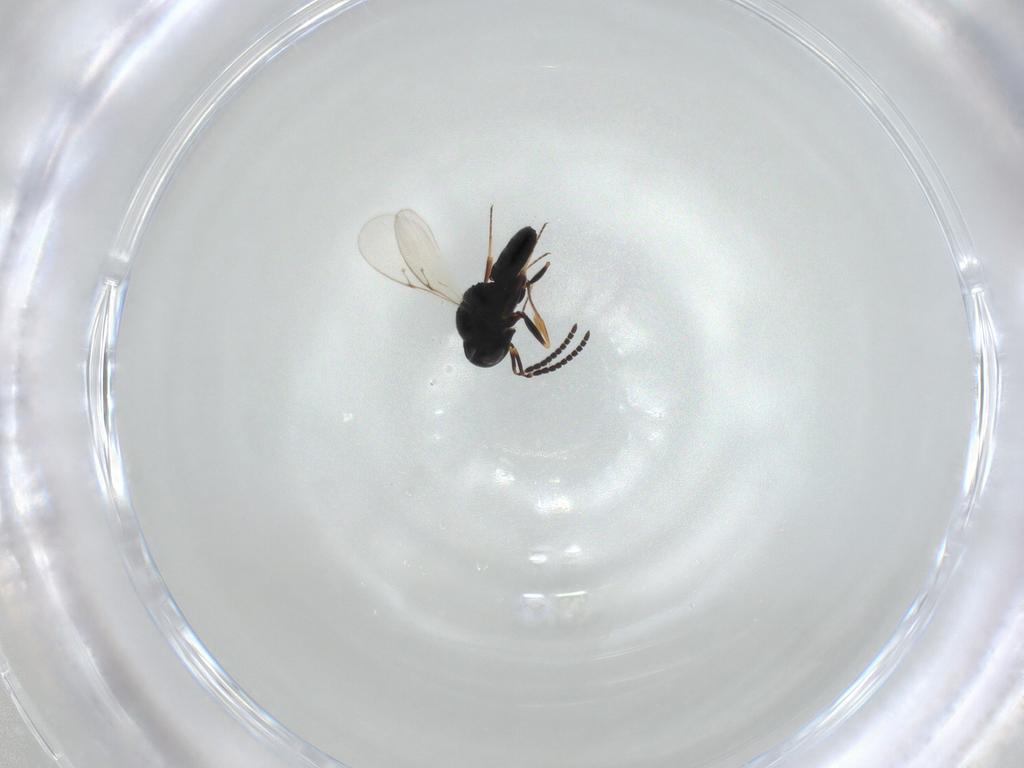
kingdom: Animalia
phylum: Arthropoda
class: Insecta
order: Hymenoptera
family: Scelionidae
